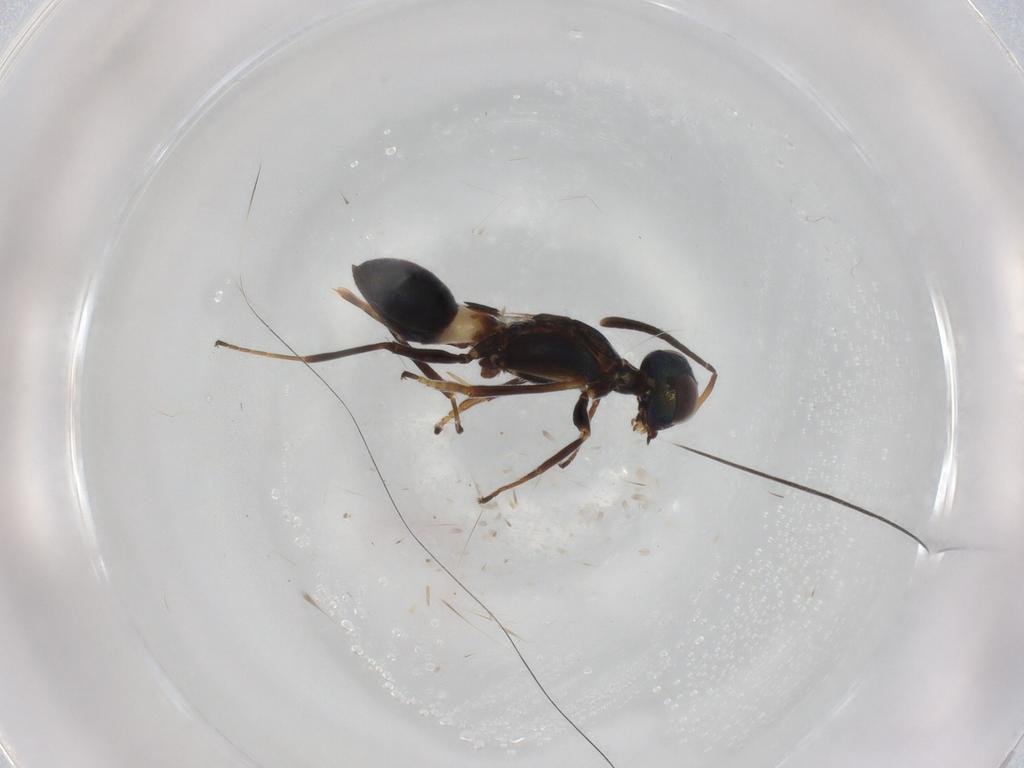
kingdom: Animalia
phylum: Arthropoda
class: Insecta
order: Hymenoptera
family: Eupelmidae
